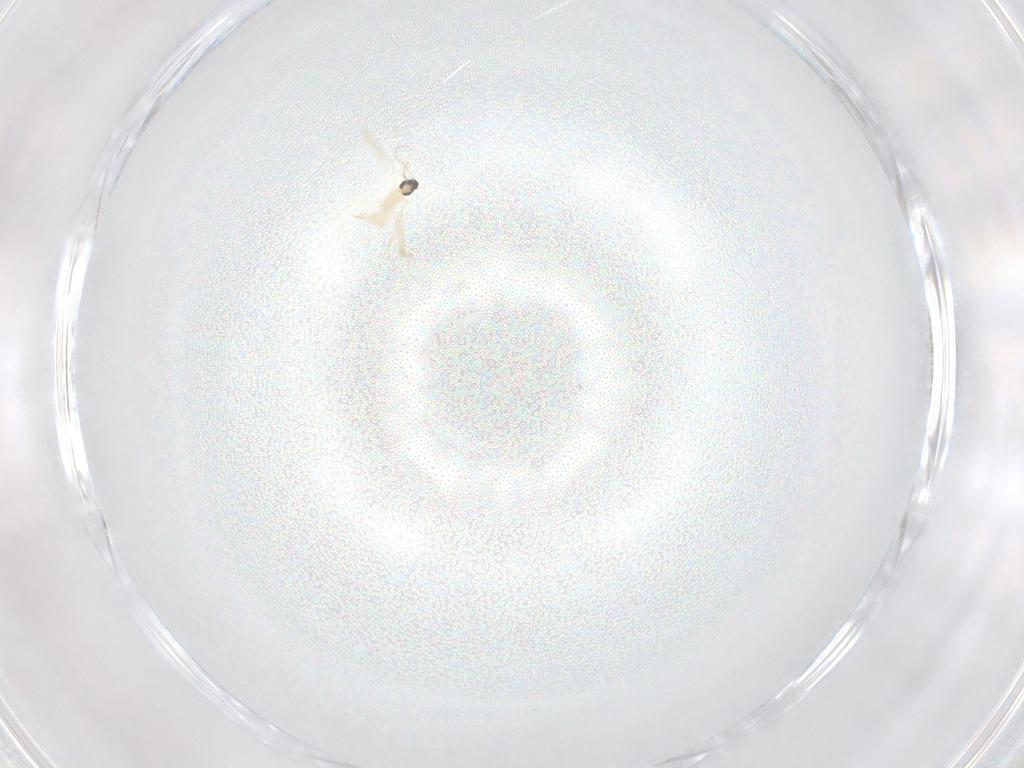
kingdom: Animalia
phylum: Arthropoda
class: Insecta
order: Diptera
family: Cecidomyiidae
